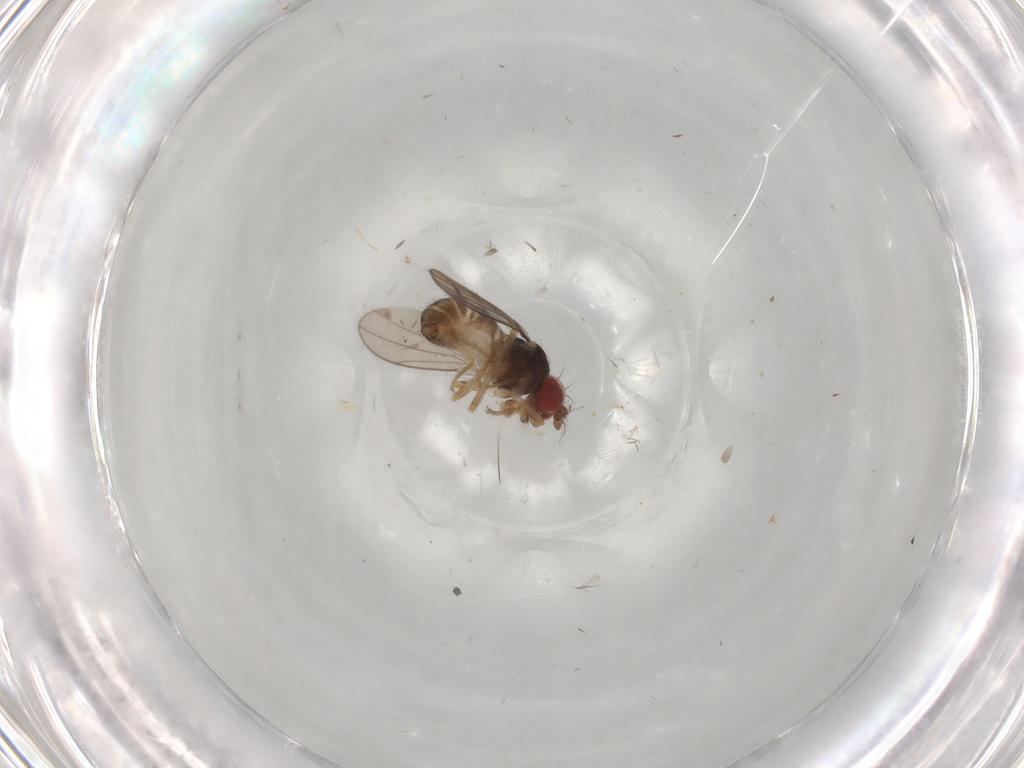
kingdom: Animalia
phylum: Arthropoda
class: Insecta
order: Diptera
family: Drosophilidae
